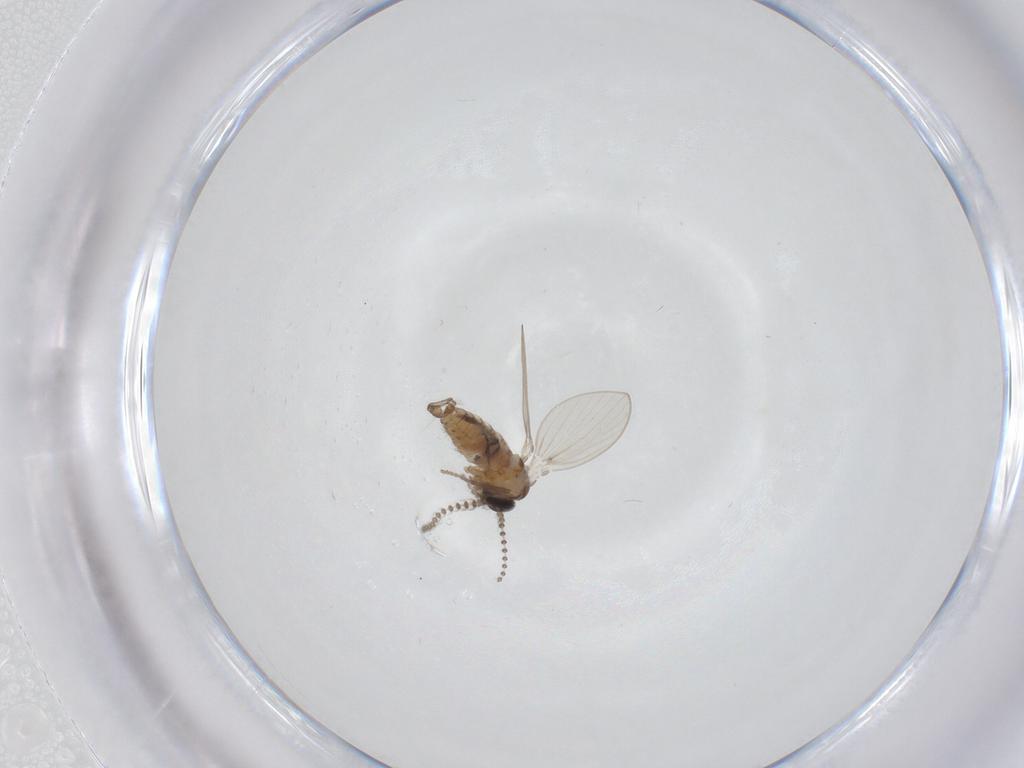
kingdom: Animalia
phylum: Arthropoda
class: Insecta
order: Diptera
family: Psychodidae
